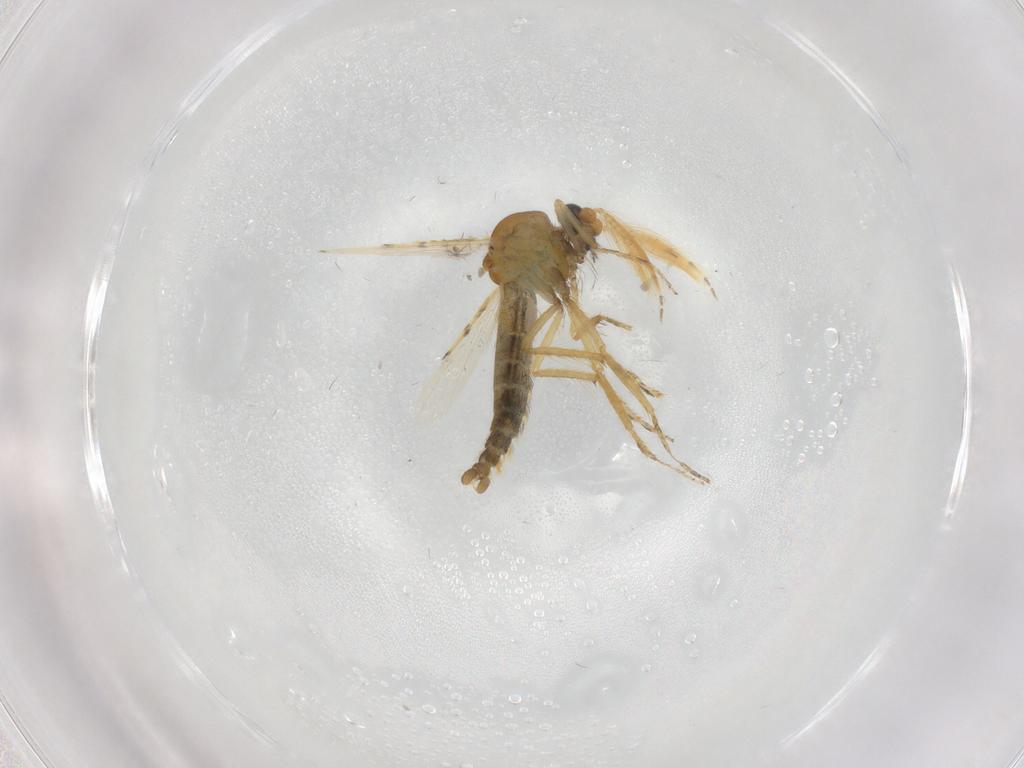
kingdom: Animalia
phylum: Arthropoda
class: Insecta
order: Diptera
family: Ceratopogonidae
